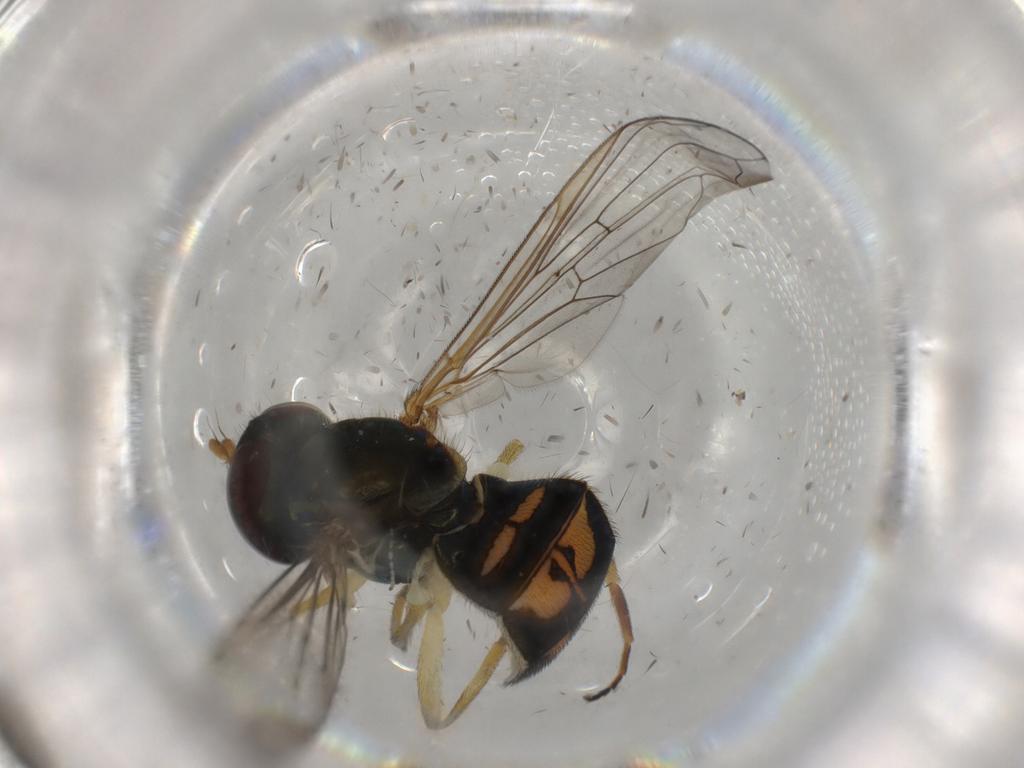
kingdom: Animalia
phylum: Arthropoda
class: Insecta
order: Diptera
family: Syrphidae
